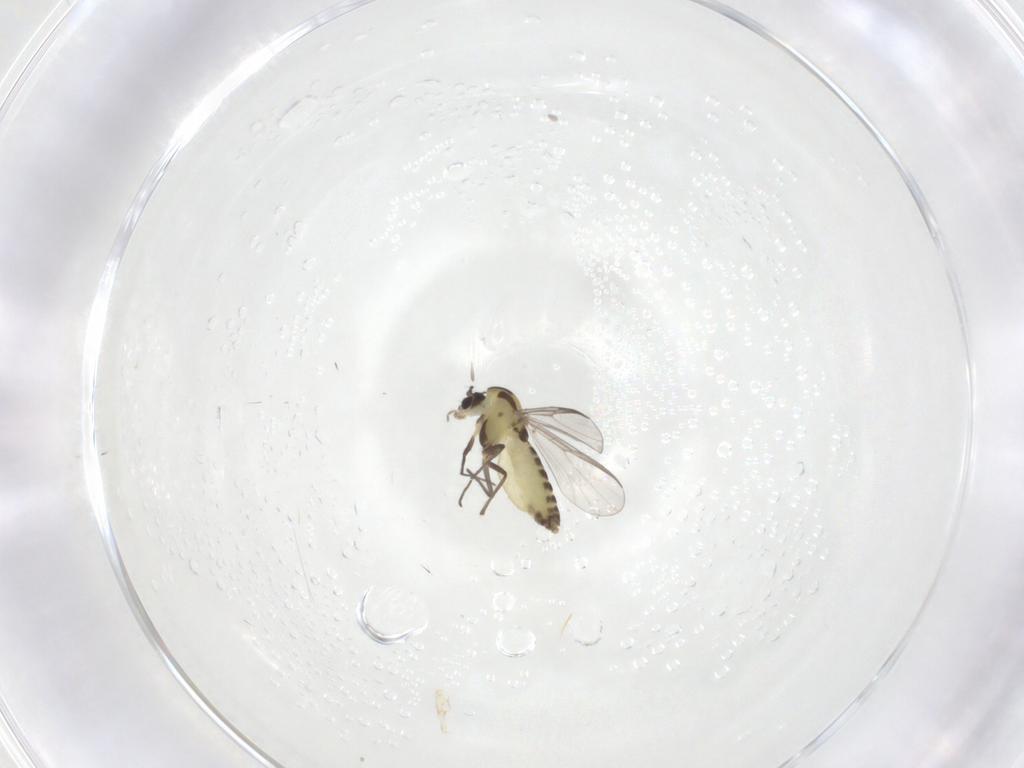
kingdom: Animalia
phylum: Arthropoda
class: Insecta
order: Diptera
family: Chironomidae
